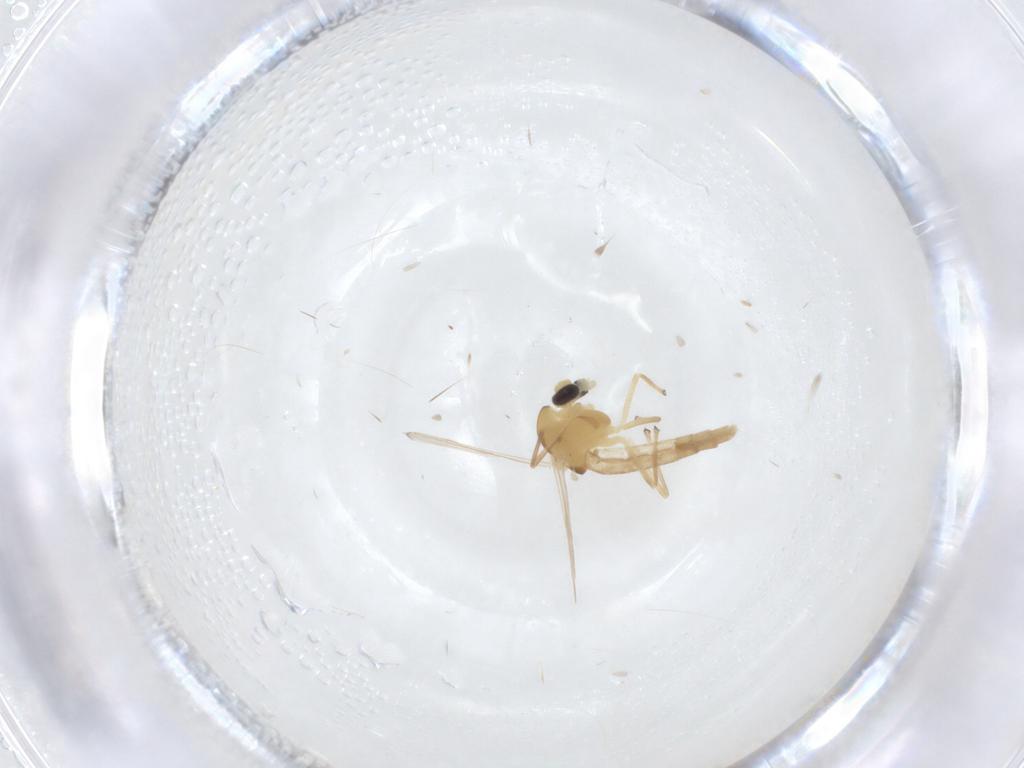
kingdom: Animalia
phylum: Arthropoda
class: Insecta
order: Diptera
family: Chironomidae
